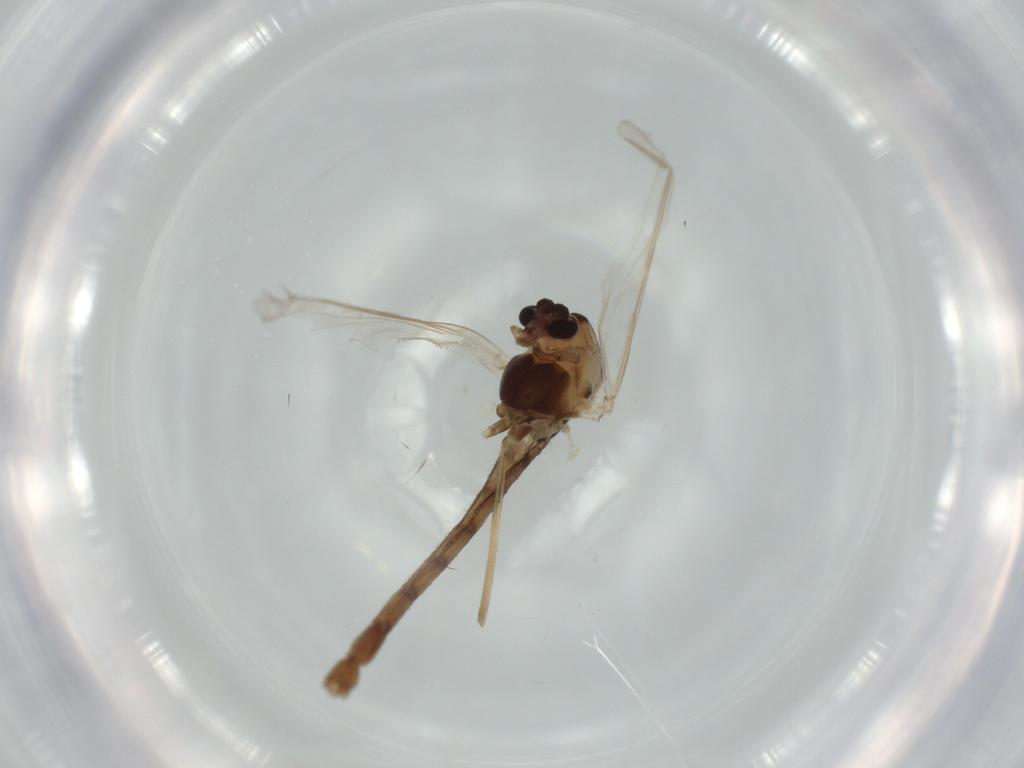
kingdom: Animalia
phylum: Arthropoda
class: Insecta
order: Diptera
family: Chironomidae
